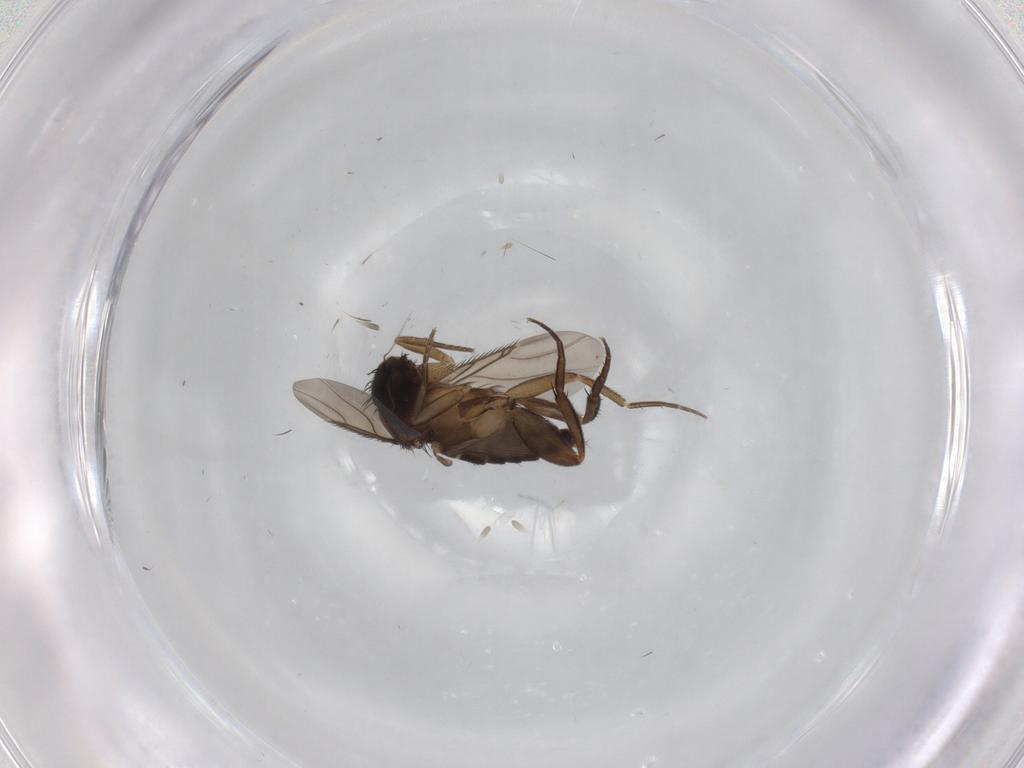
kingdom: Animalia
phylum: Arthropoda
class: Insecta
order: Diptera
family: Phoridae
